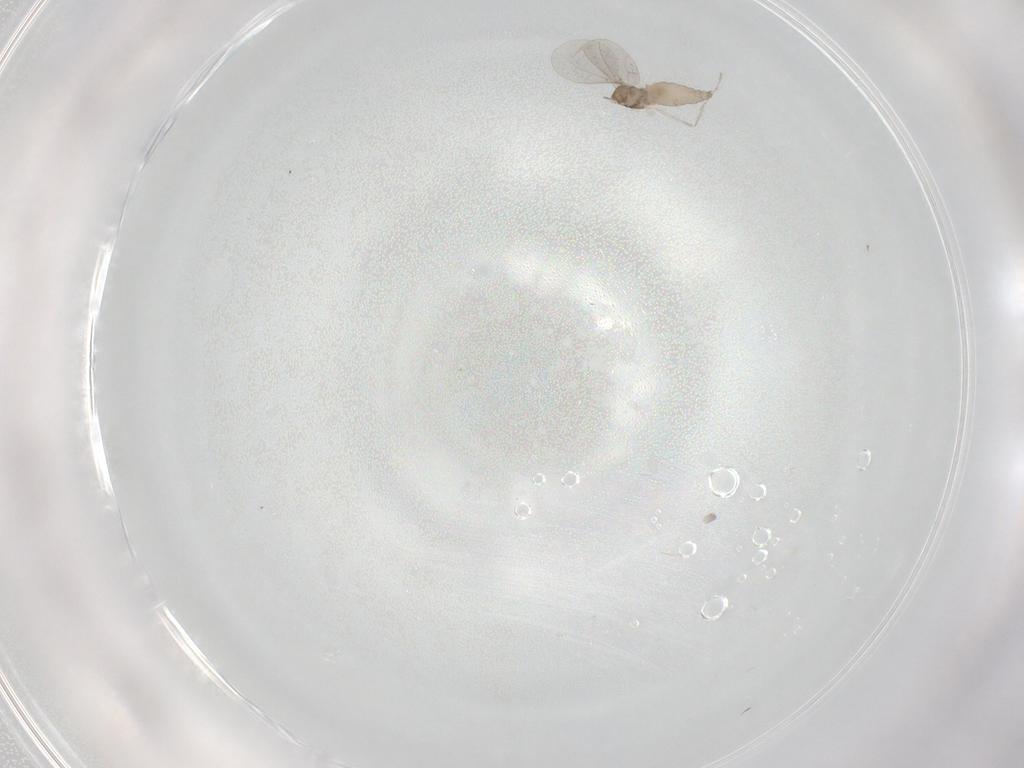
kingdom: Animalia
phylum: Arthropoda
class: Insecta
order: Diptera
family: Cecidomyiidae
